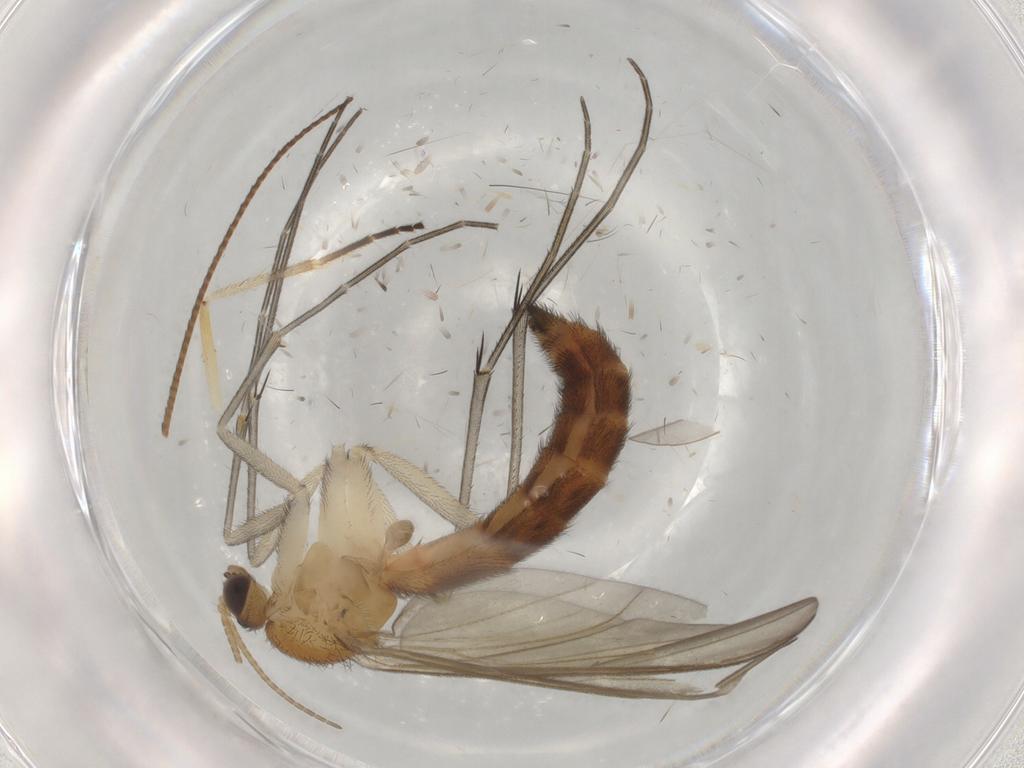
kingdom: Animalia
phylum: Arthropoda
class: Insecta
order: Diptera
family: Keroplatidae
